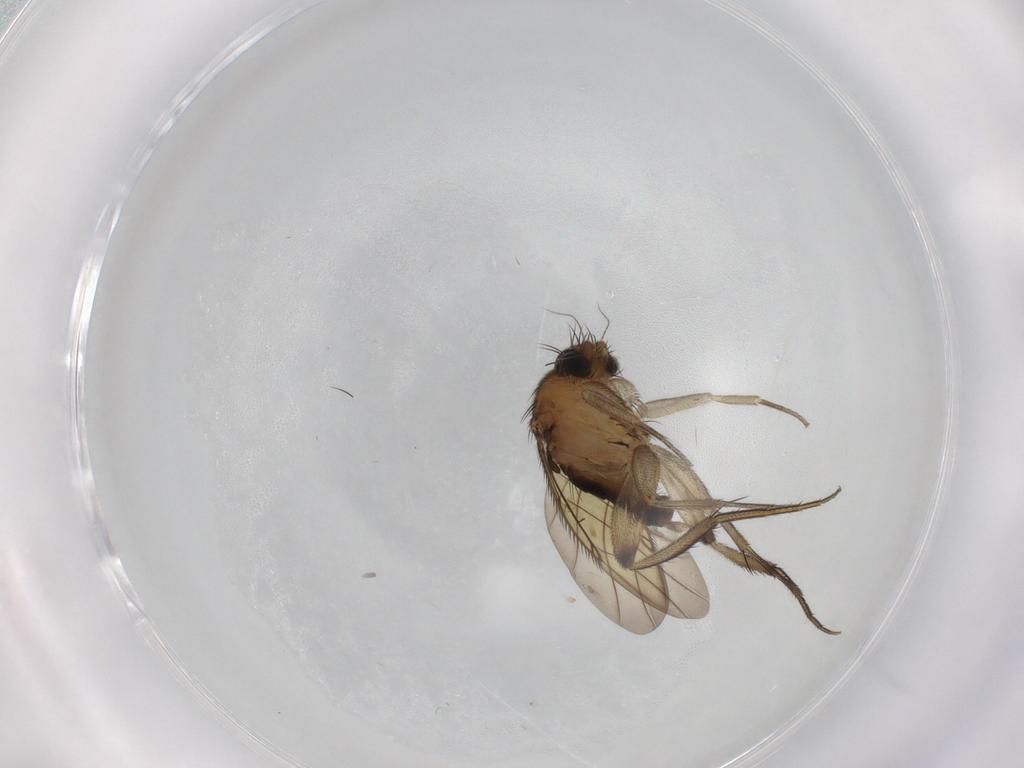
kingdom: Animalia
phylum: Arthropoda
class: Insecta
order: Diptera
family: Phoridae
